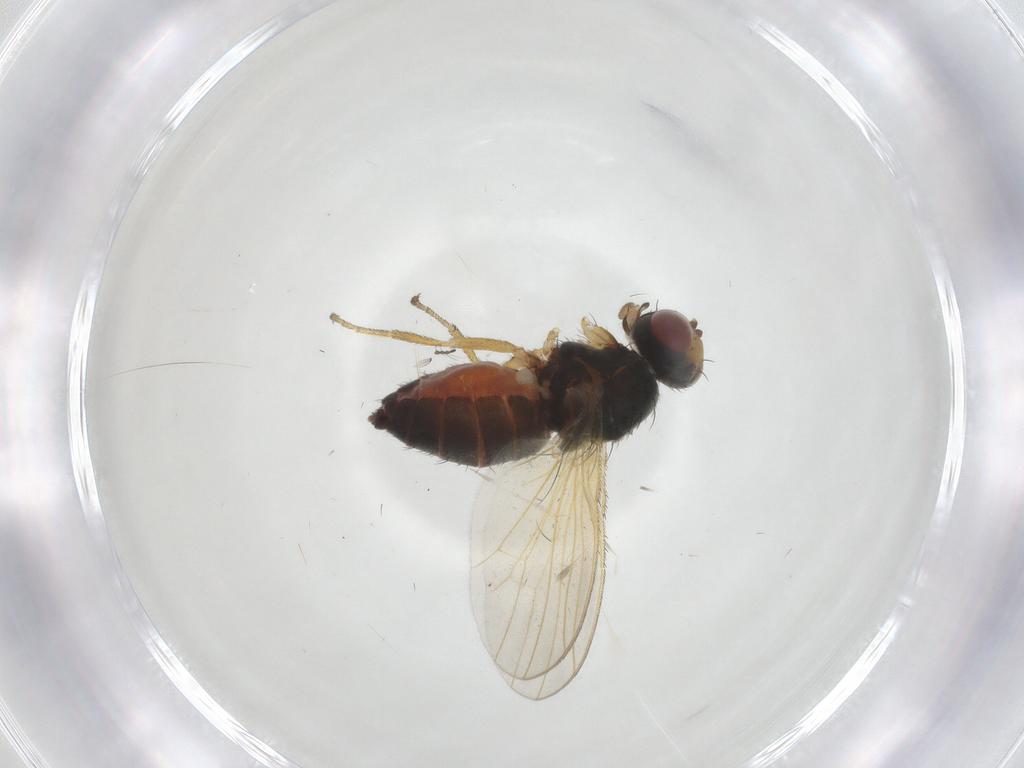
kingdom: Animalia
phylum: Arthropoda
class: Insecta
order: Diptera
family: Heleomyzidae
